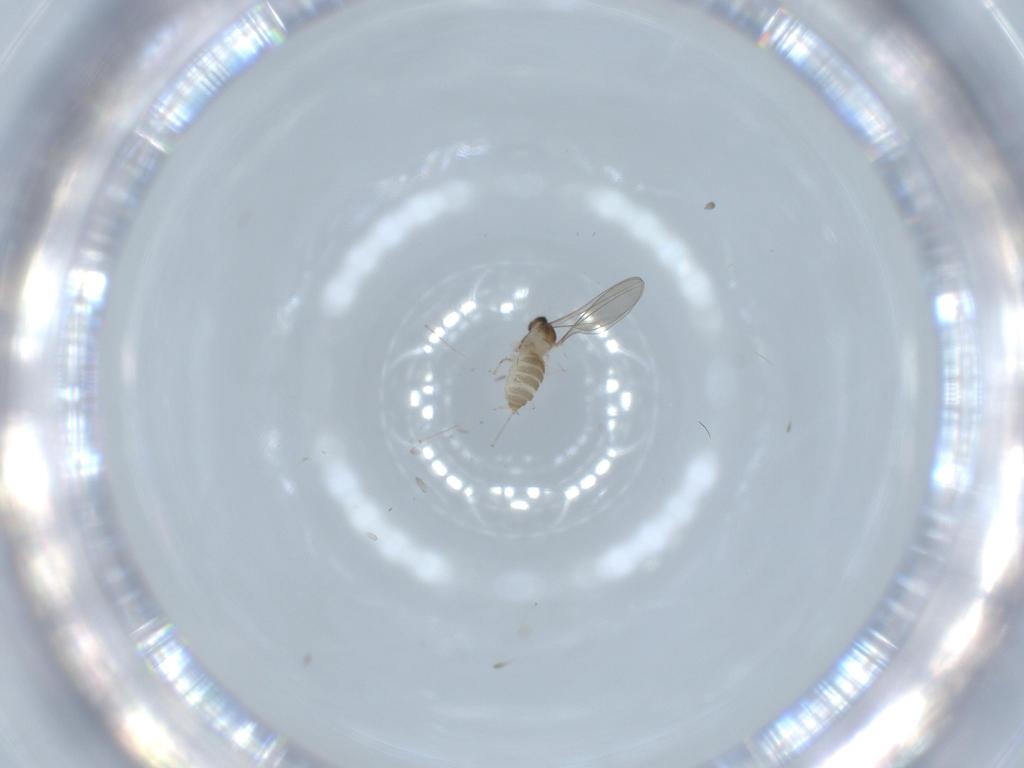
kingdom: Animalia
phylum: Arthropoda
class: Insecta
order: Diptera
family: Cecidomyiidae
